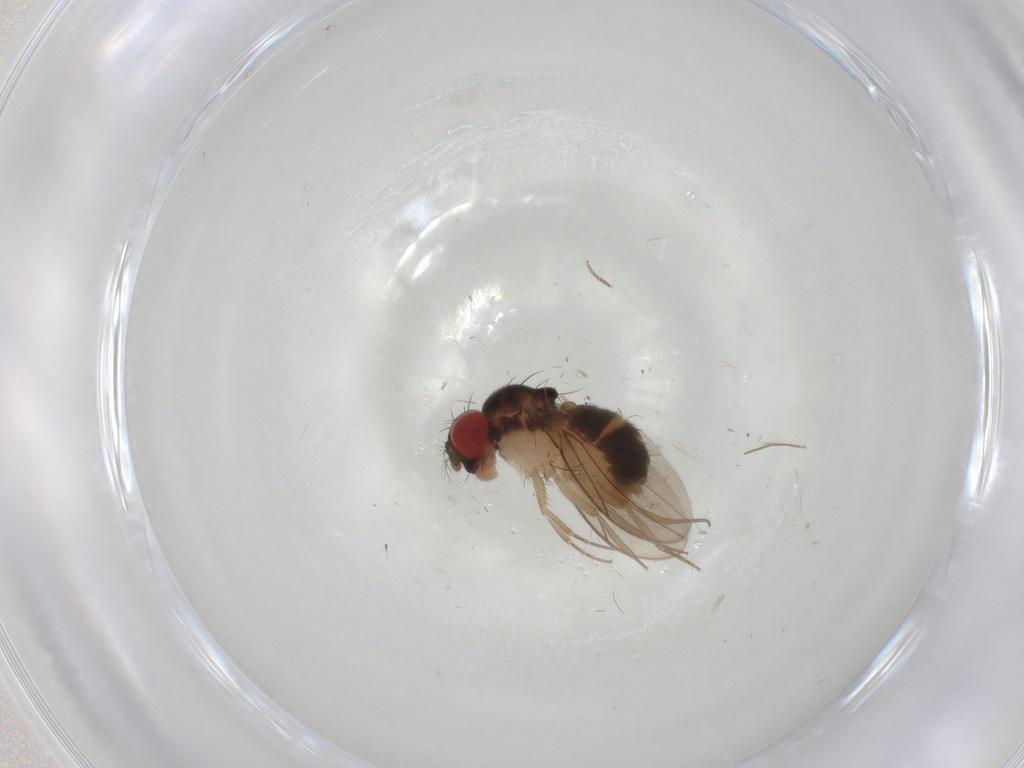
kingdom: Animalia
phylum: Arthropoda
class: Insecta
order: Diptera
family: Drosophilidae
